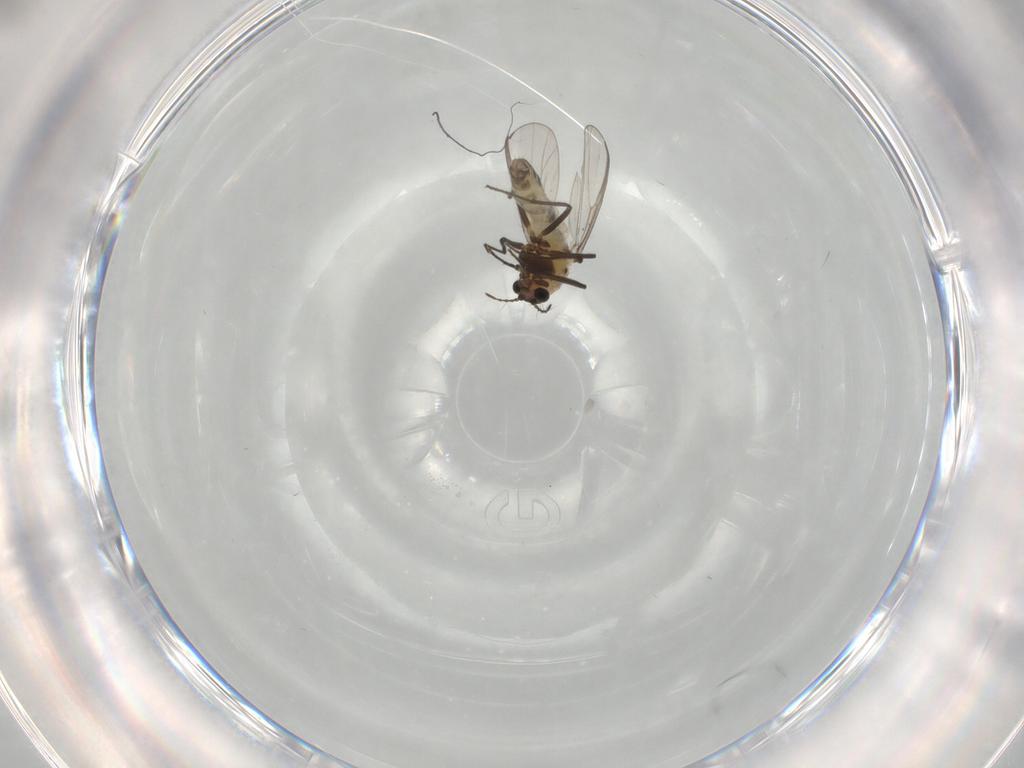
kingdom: Animalia
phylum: Arthropoda
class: Insecta
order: Diptera
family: Chironomidae
